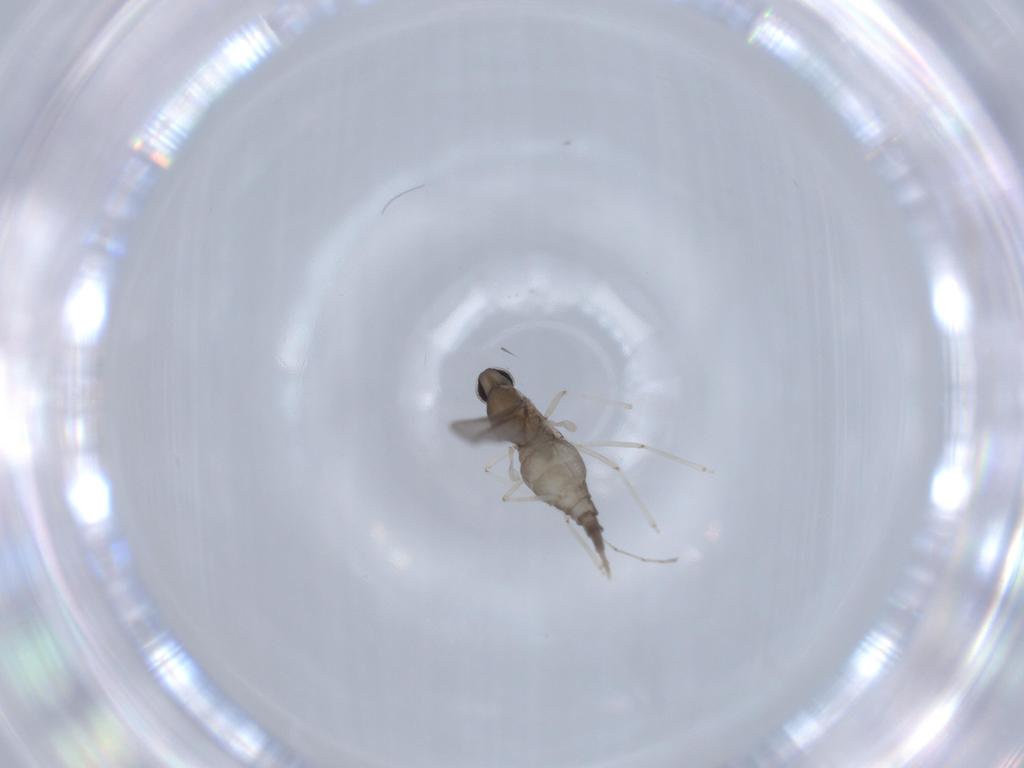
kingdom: Animalia
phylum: Arthropoda
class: Insecta
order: Diptera
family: Cecidomyiidae
